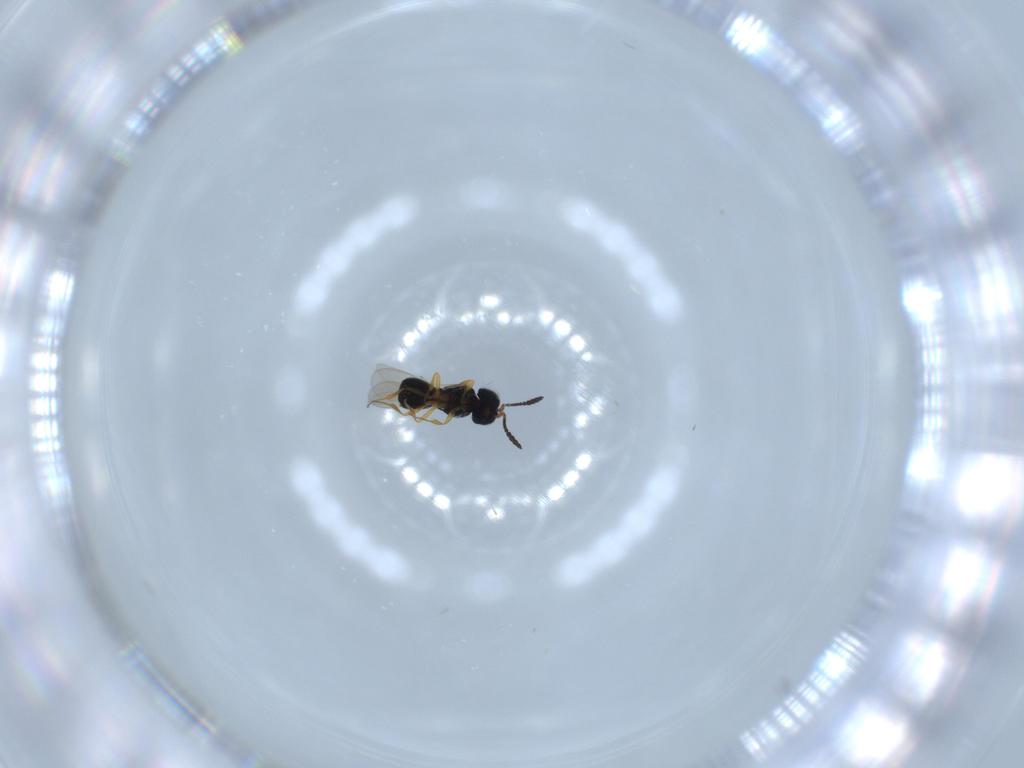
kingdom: Animalia
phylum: Arthropoda
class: Insecta
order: Hymenoptera
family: Scelionidae
